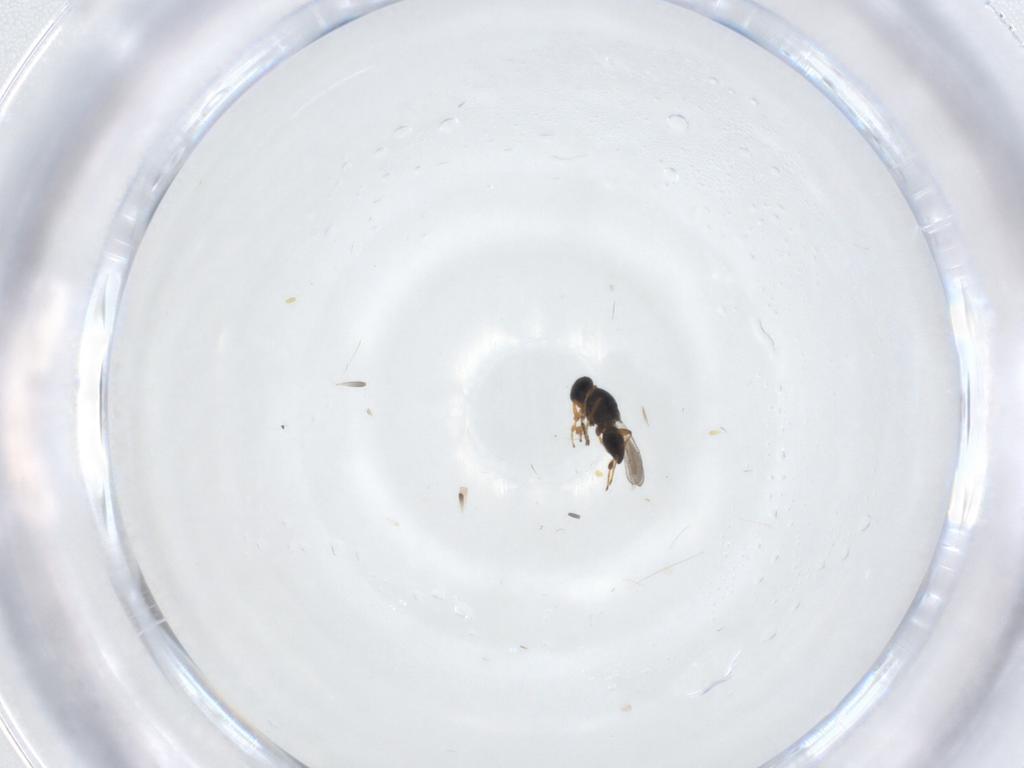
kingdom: Animalia
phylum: Arthropoda
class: Insecta
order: Hymenoptera
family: Platygastridae
